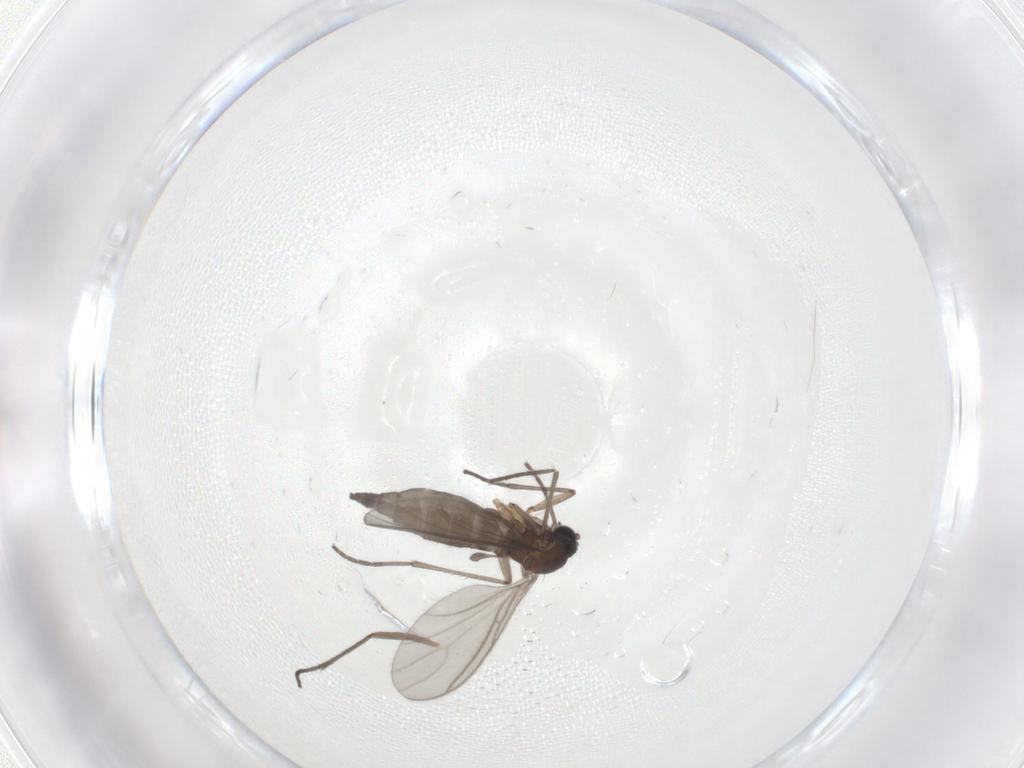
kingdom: Animalia
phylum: Arthropoda
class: Insecta
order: Diptera
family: Sciaridae
